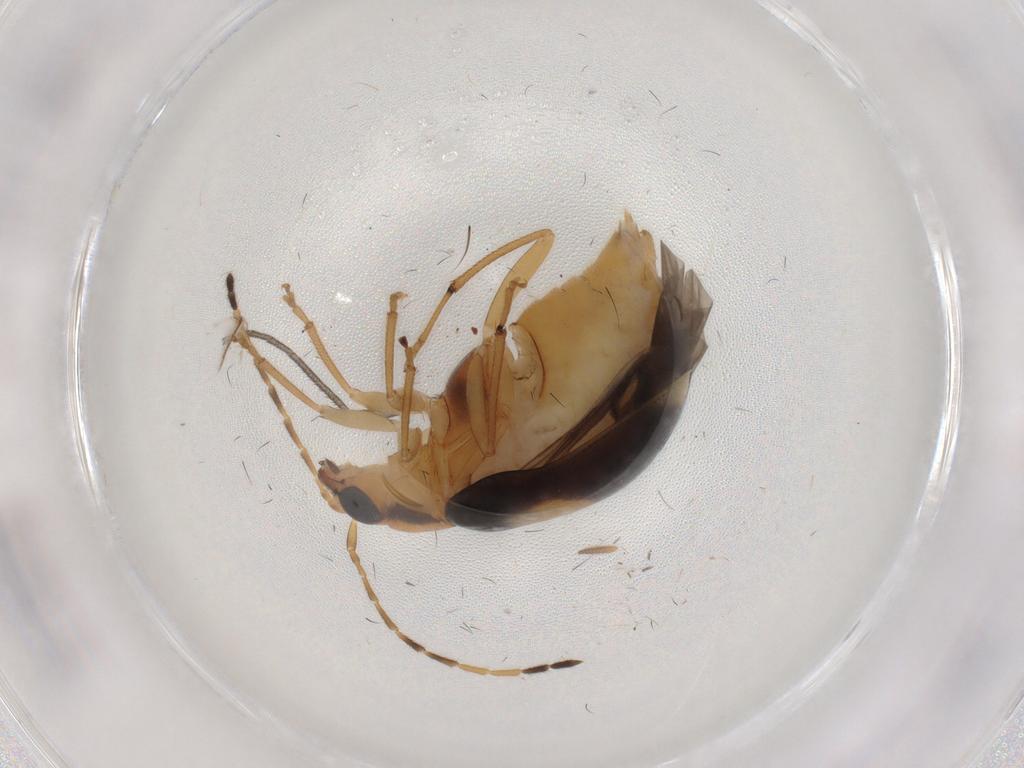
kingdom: Animalia
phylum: Arthropoda
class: Insecta
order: Coleoptera
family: Chrysomelidae
